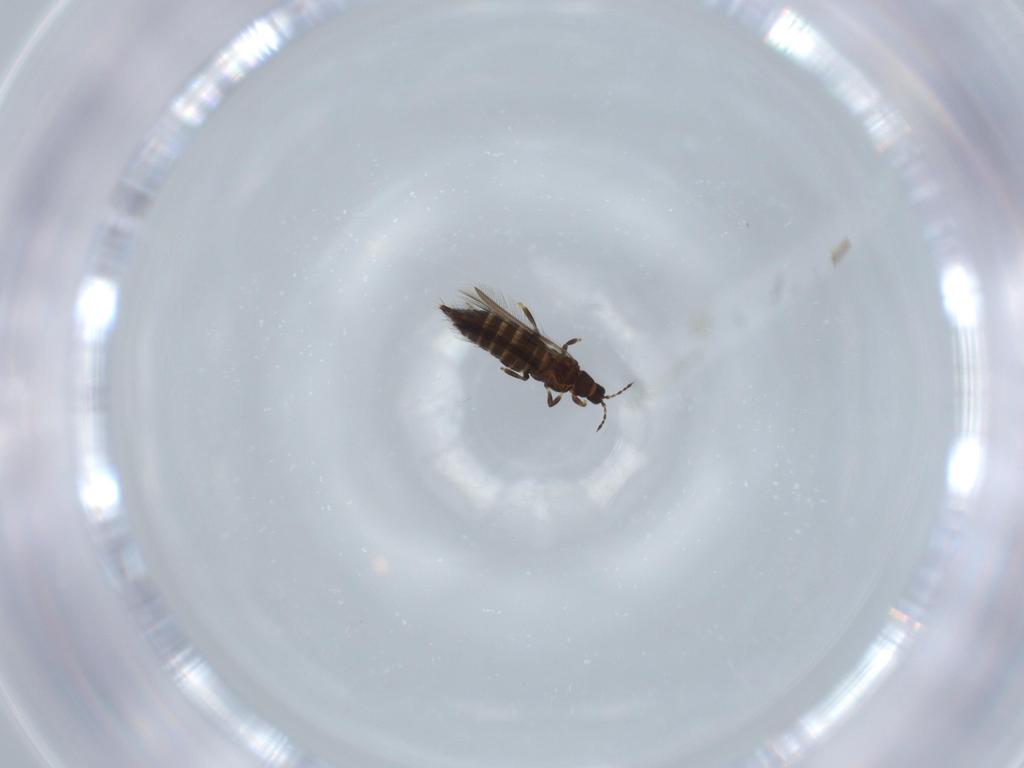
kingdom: Animalia
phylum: Arthropoda
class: Insecta
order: Thysanoptera
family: Thripidae
